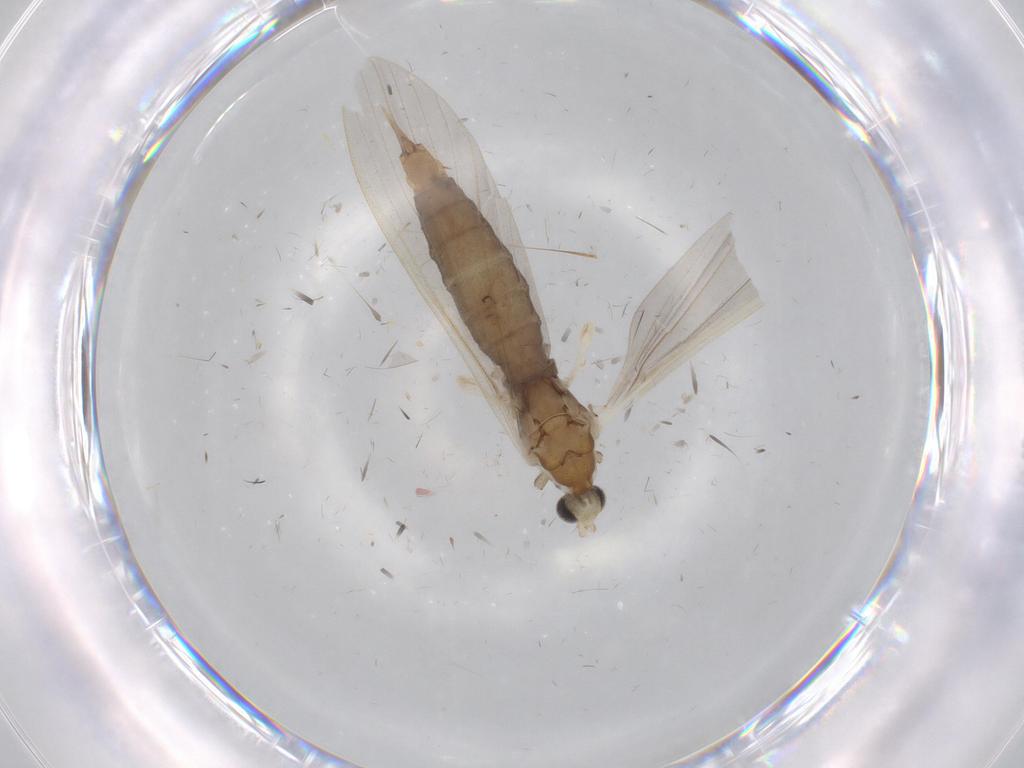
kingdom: Animalia
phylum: Arthropoda
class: Insecta
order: Diptera
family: Limoniidae
